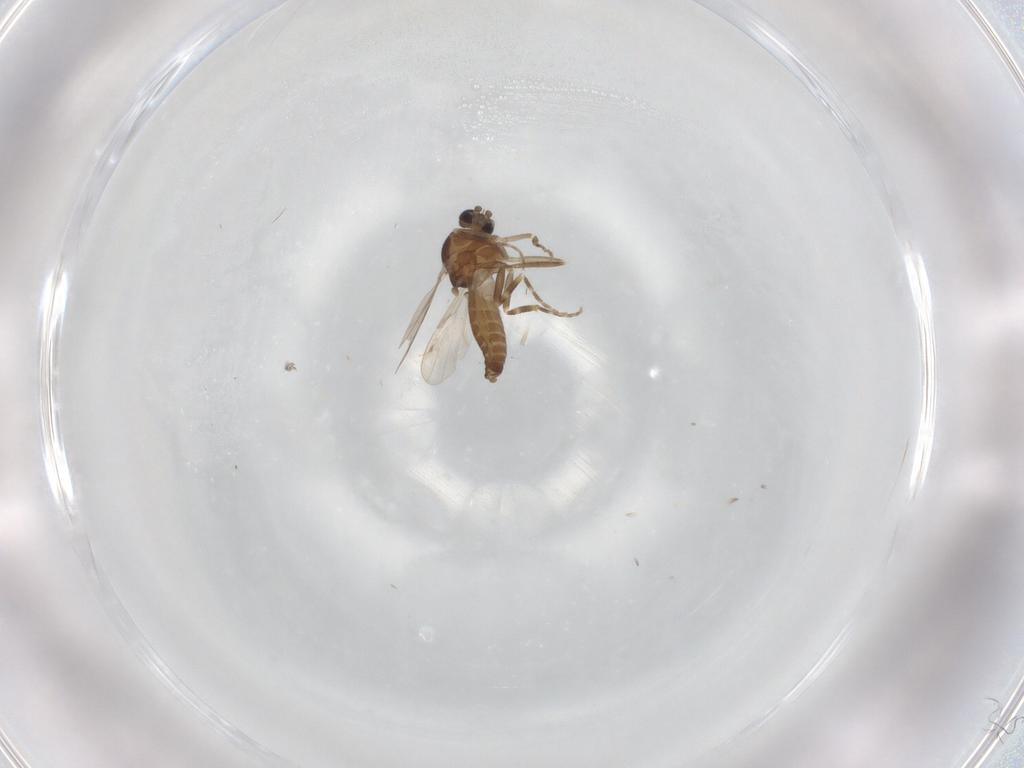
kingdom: Animalia
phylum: Arthropoda
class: Insecta
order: Diptera
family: Ceratopogonidae
